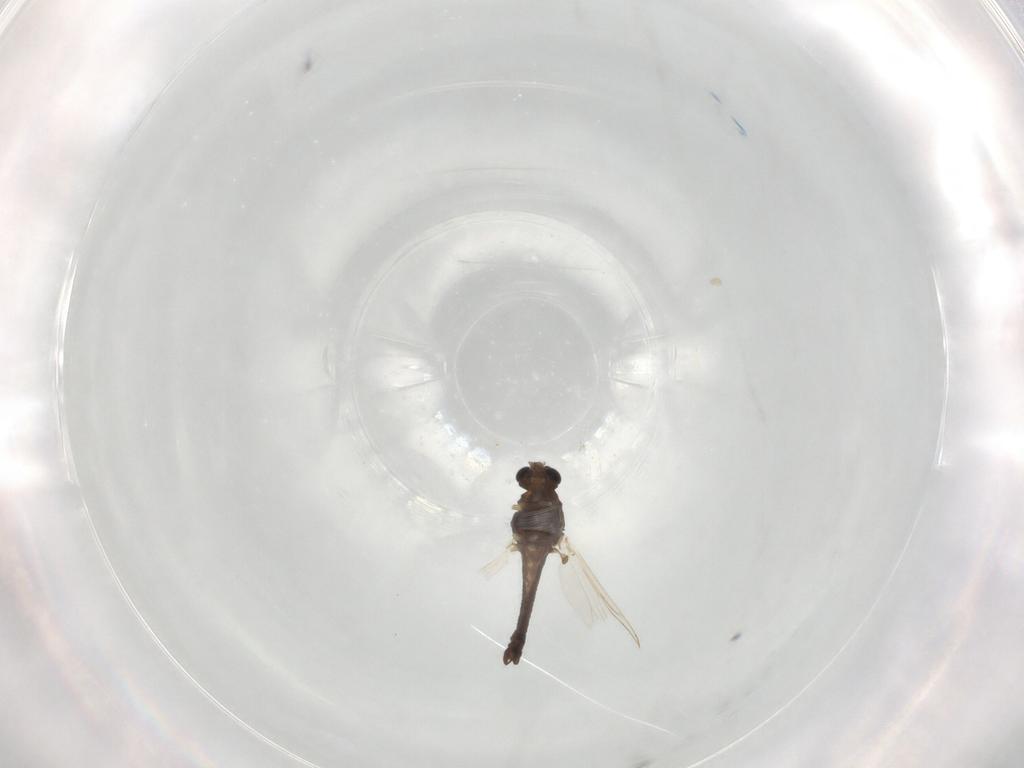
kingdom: Animalia
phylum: Arthropoda
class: Insecta
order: Diptera
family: Chironomidae
